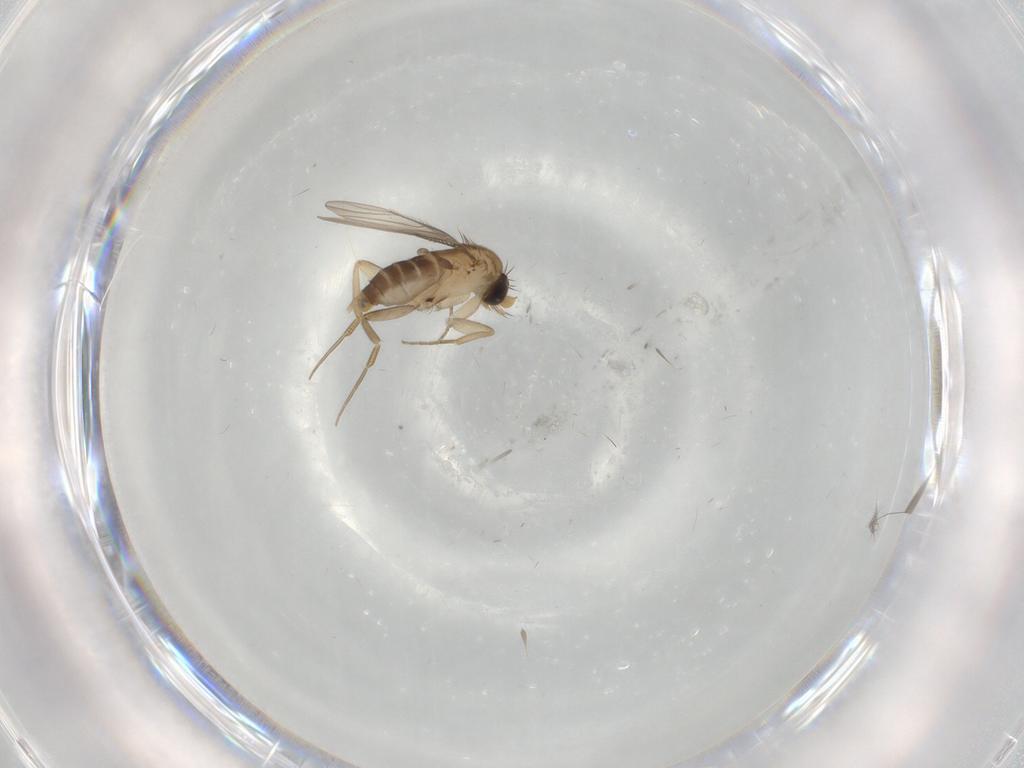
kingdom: Animalia
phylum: Arthropoda
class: Insecta
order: Diptera
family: Phoridae
